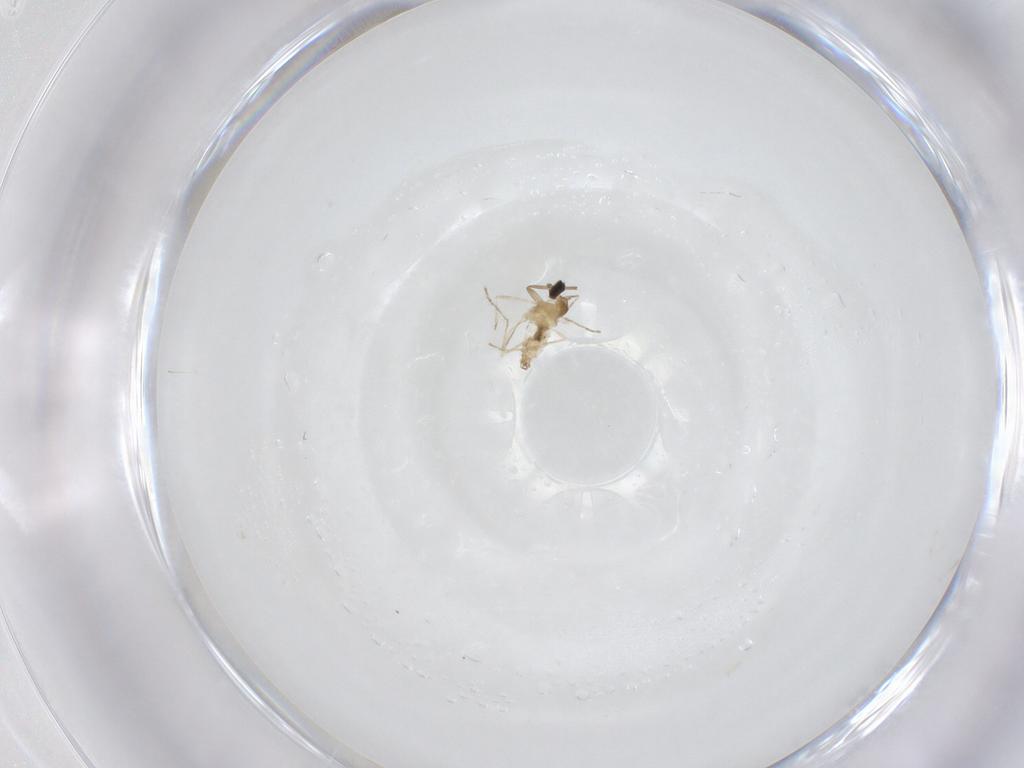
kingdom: Animalia
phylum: Arthropoda
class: Insecta
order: Diptera
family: Cecidomyiidae
